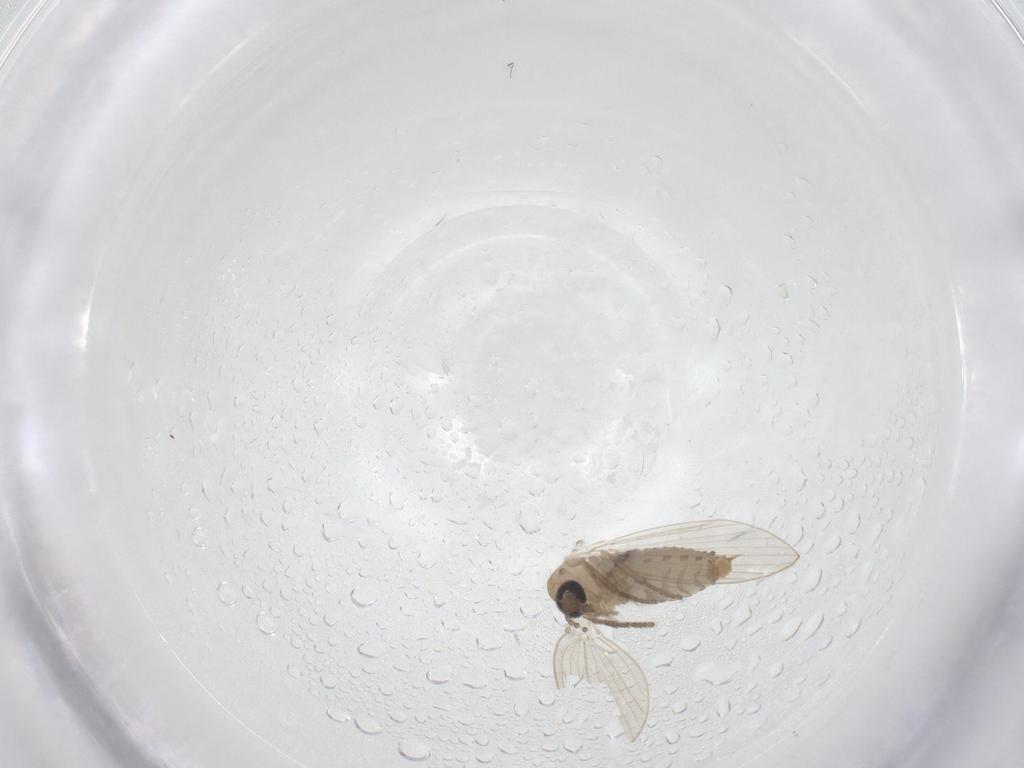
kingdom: Animalia
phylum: Arthropoda
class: Insecta
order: Diptera
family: Psychodidae
